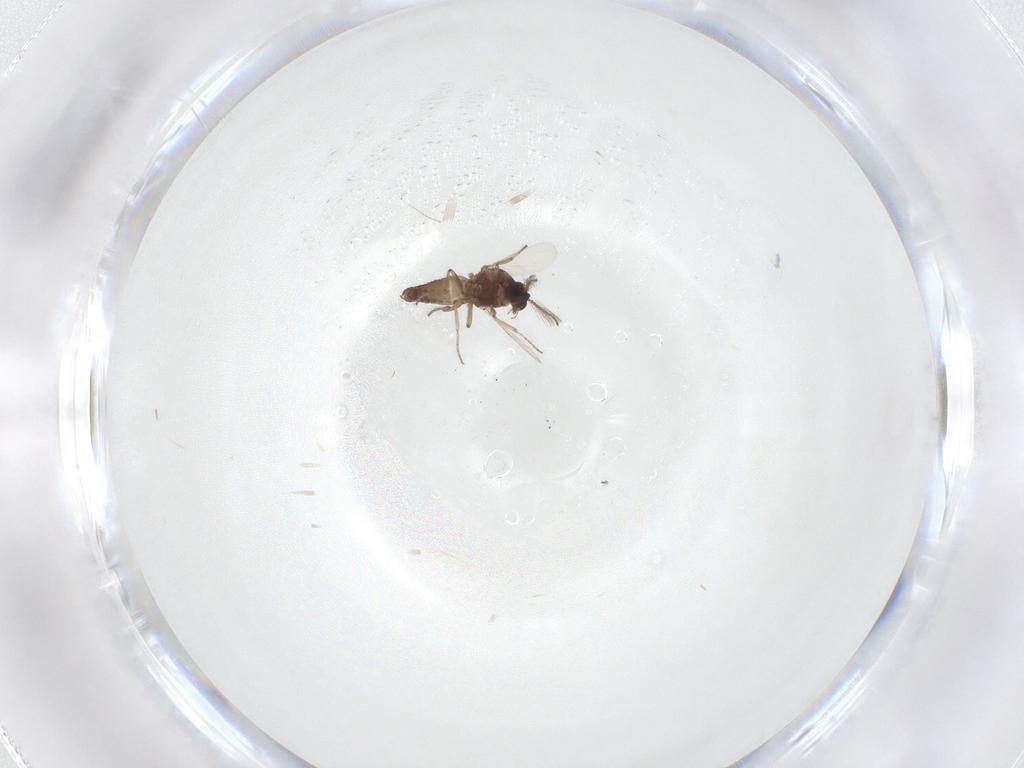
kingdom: Animalia
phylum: Arthropoda
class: Insecta
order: Diptera
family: Ceratopogonidae
